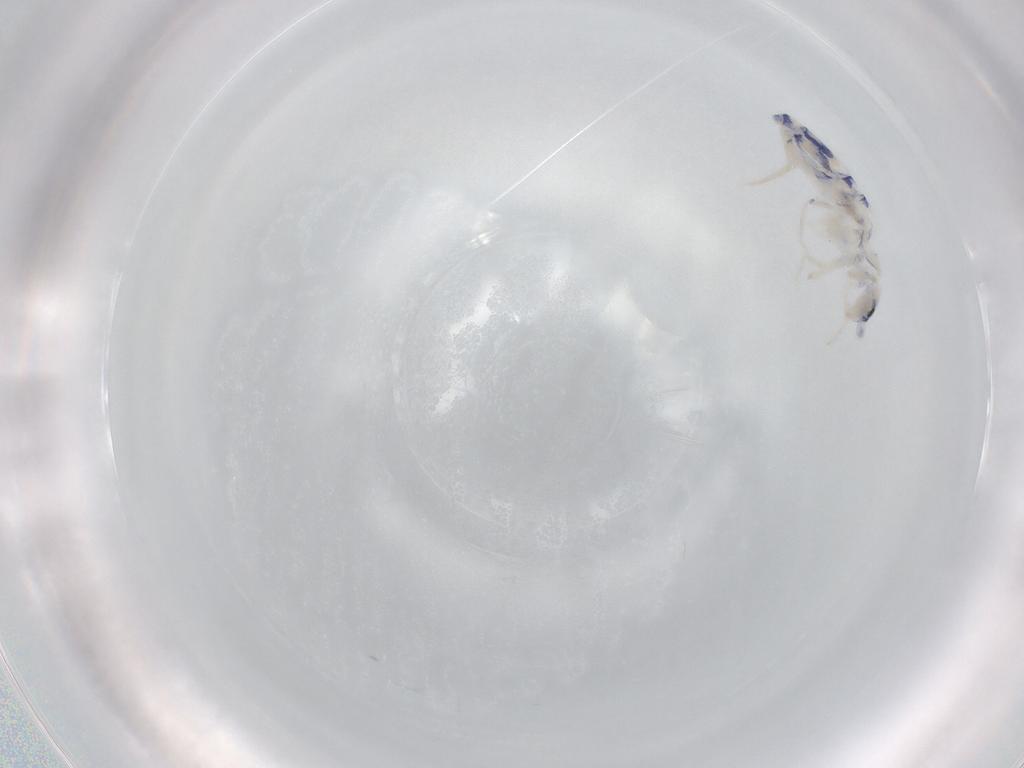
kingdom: Animalia
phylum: Arthropoda
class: Collembola
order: Entomobryomorpha
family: Entomobryidae
